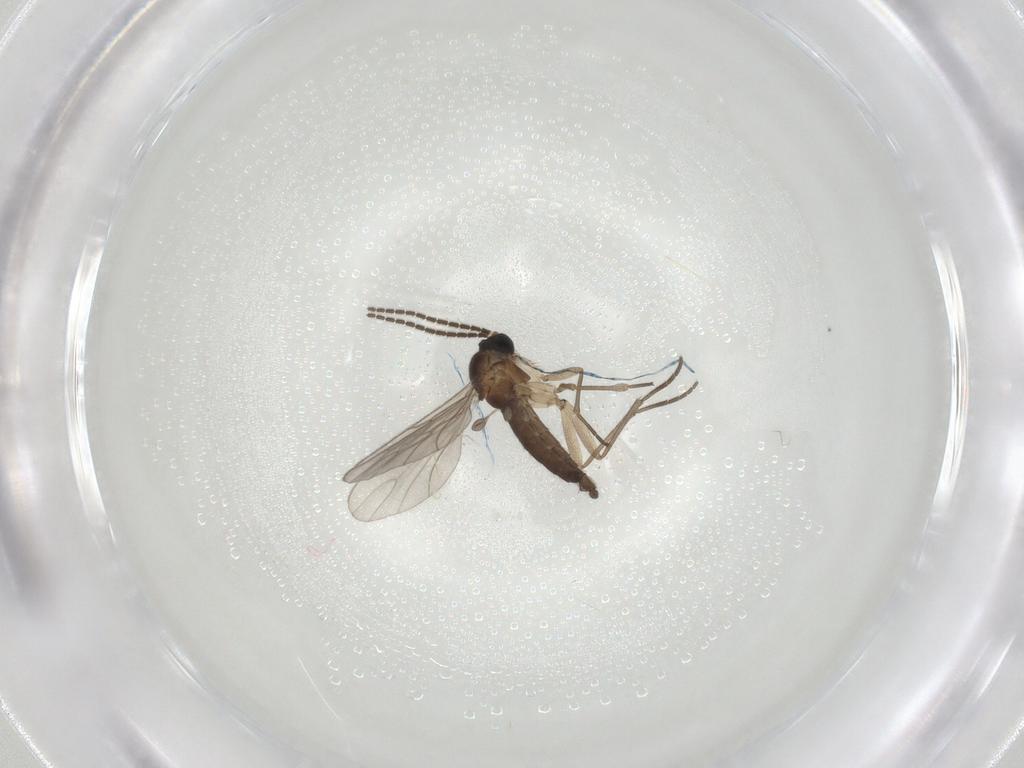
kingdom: Animalia
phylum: Arthropoda
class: Insecta
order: Diptera
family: Sciaridae
